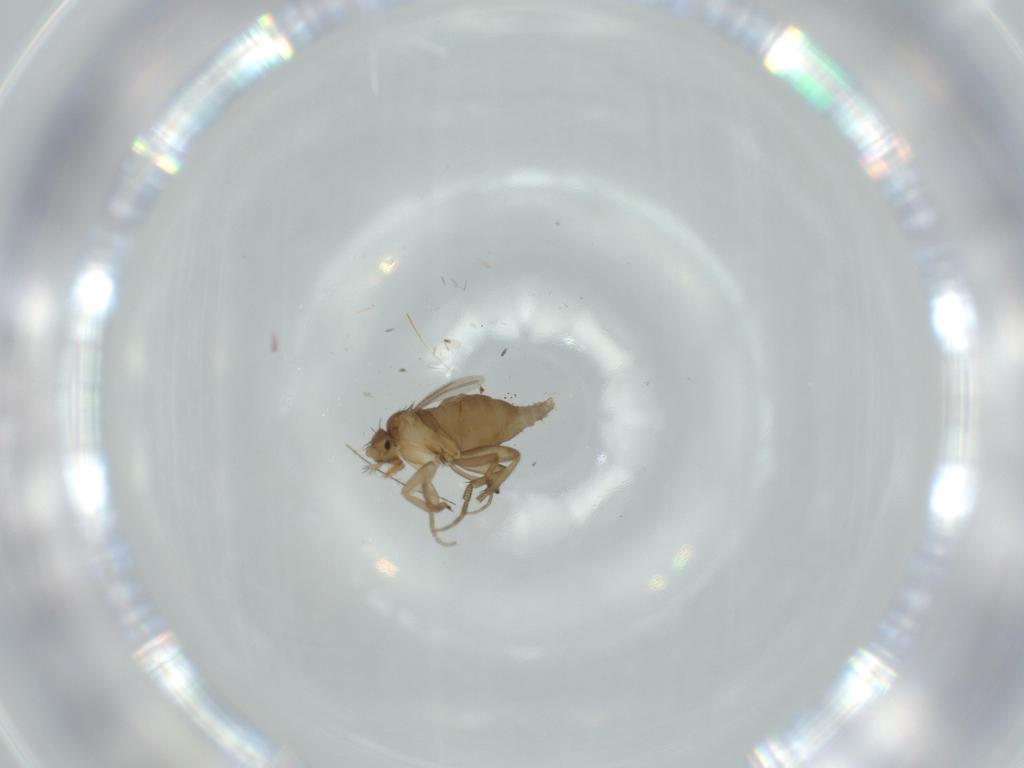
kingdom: Animalia
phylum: Arthropoda
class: Insecta
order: Diptera
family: Phoridae
